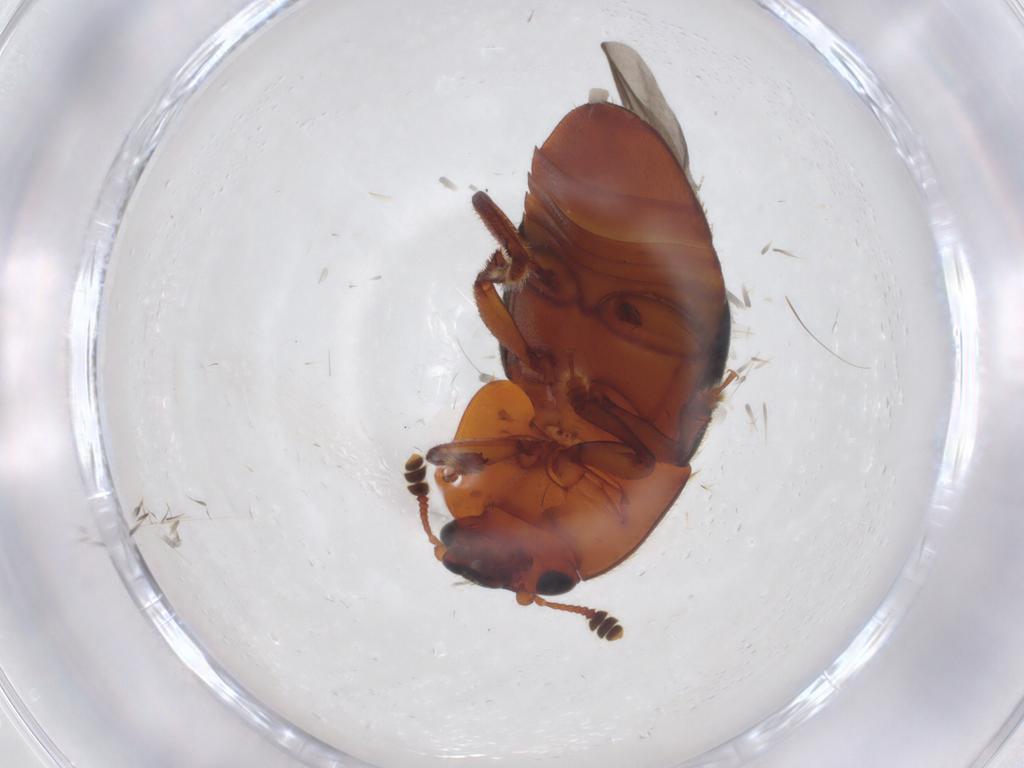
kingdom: Animalia
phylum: Arthropoda
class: Insecta
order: Coleoptera
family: Nitidulidae
